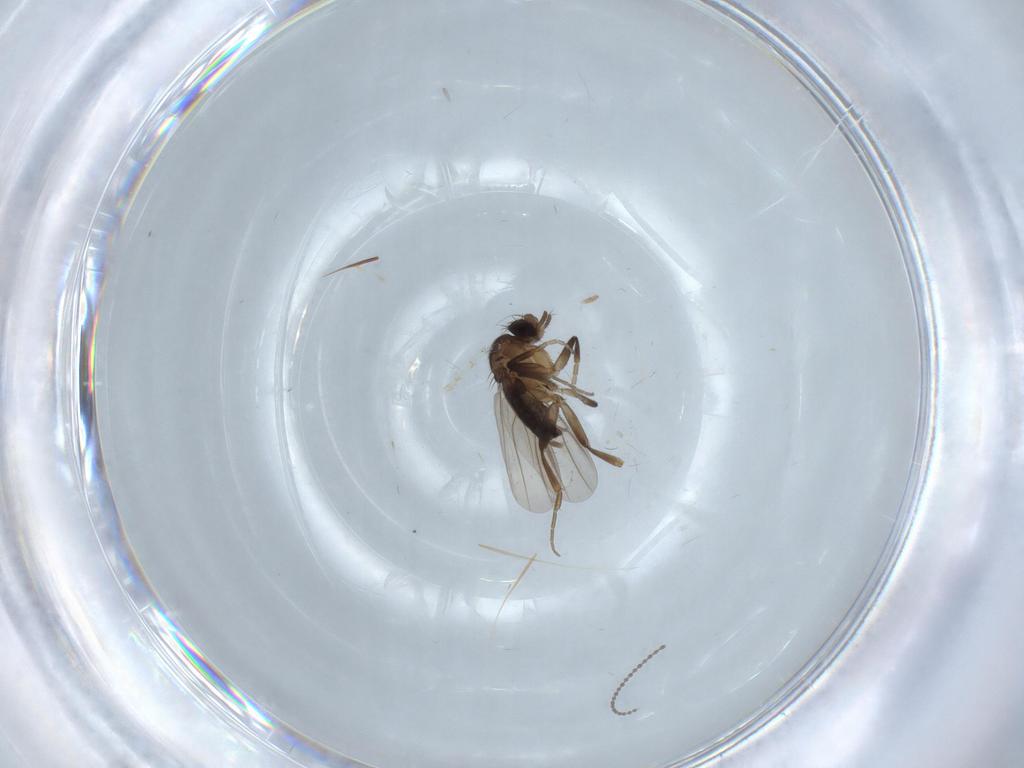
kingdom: Animalia
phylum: Arthropoda
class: Insecta
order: Diptera
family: Phoridae
